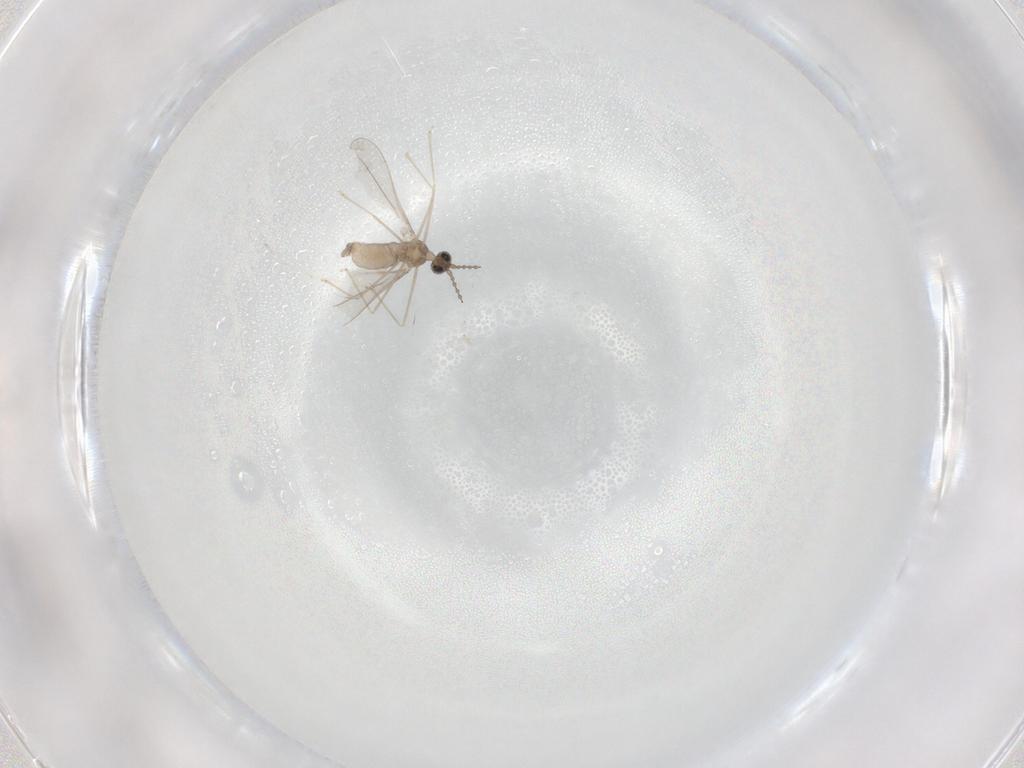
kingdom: Animalia
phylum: Arthropoda
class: Insecta
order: Diptera
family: Cecidomyiidae
